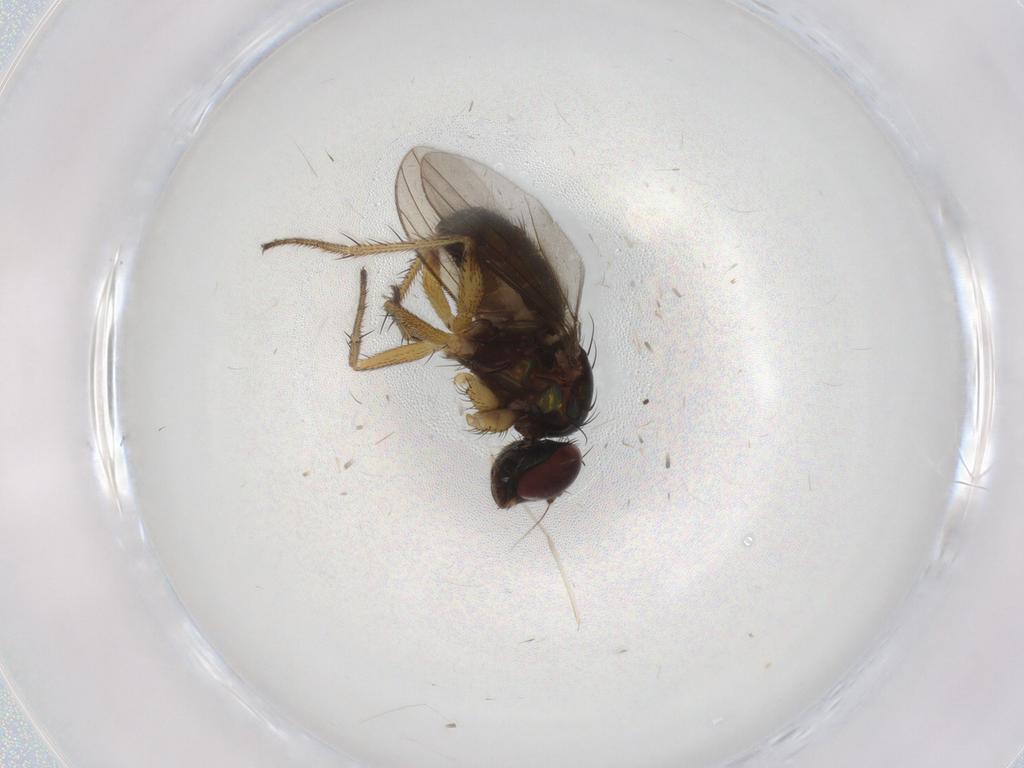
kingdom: Animalia
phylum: Arthropoda
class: Insecta
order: Diptera
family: Dolichopodidae
